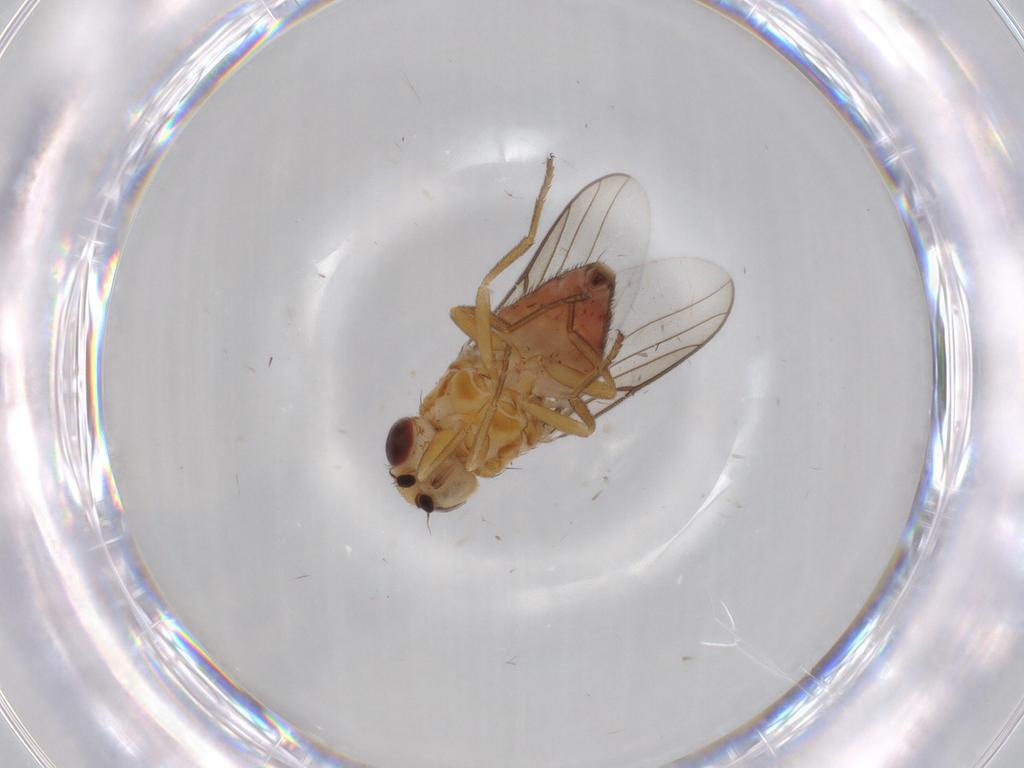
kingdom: Animalia
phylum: Arthropoda
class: Insecta
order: Diptera
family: Chloropidae
